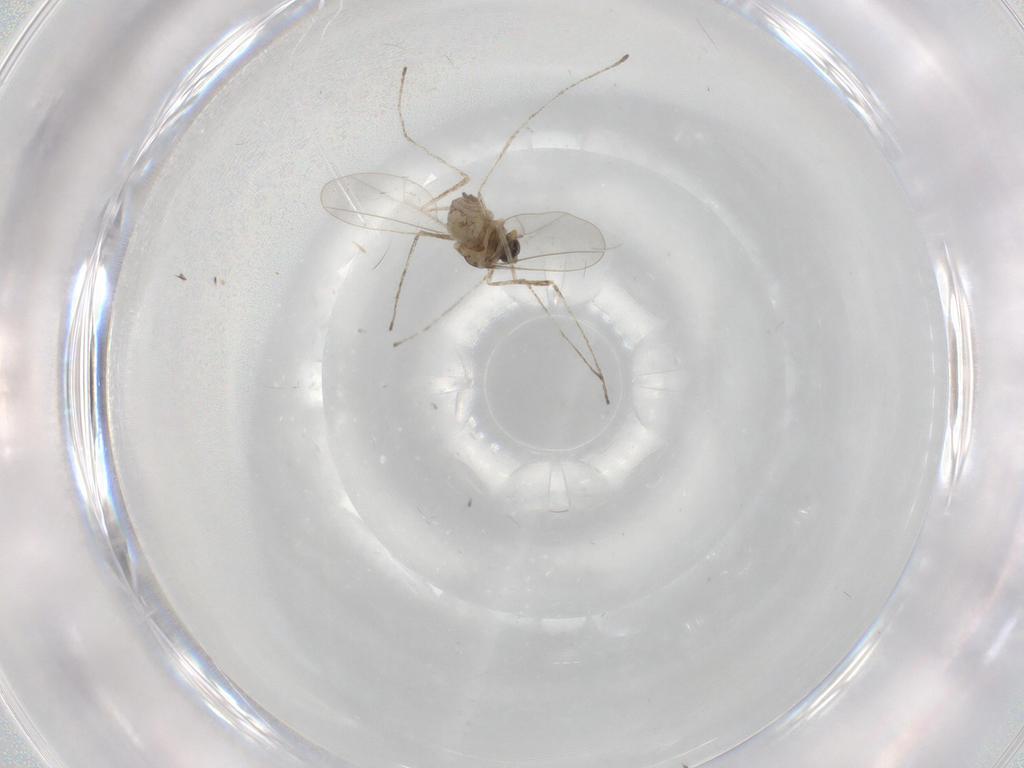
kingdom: Animalia
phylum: Arthropoda
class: Insecta
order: Diptera
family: Cecidomyiidae
